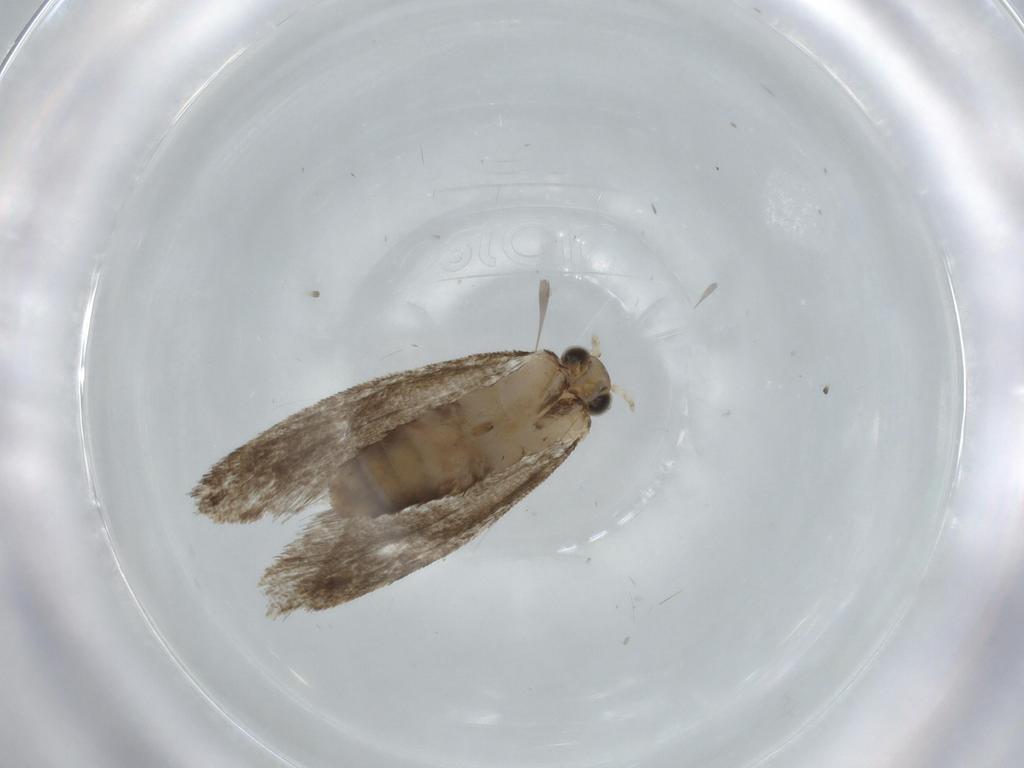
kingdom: Animalia
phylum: Arthropoda
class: Insecta
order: Lepidoptera
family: Tineidae
